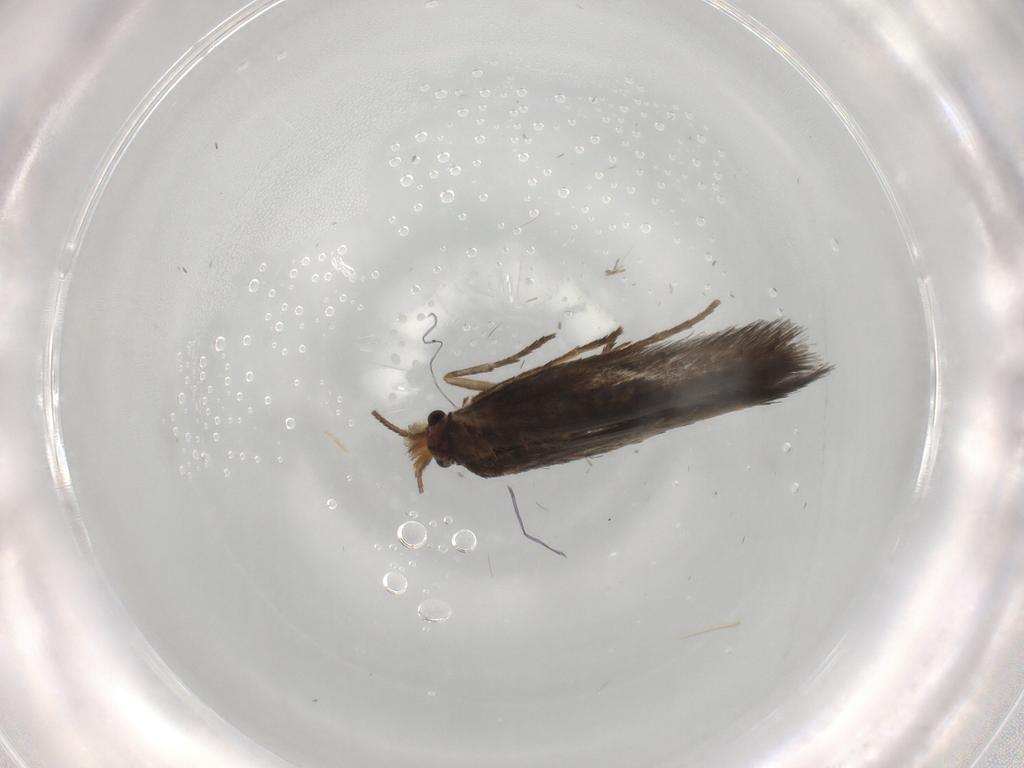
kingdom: Animalia
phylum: Arthropoda
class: Insecta
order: Lepidoptera
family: Nepticulidae
